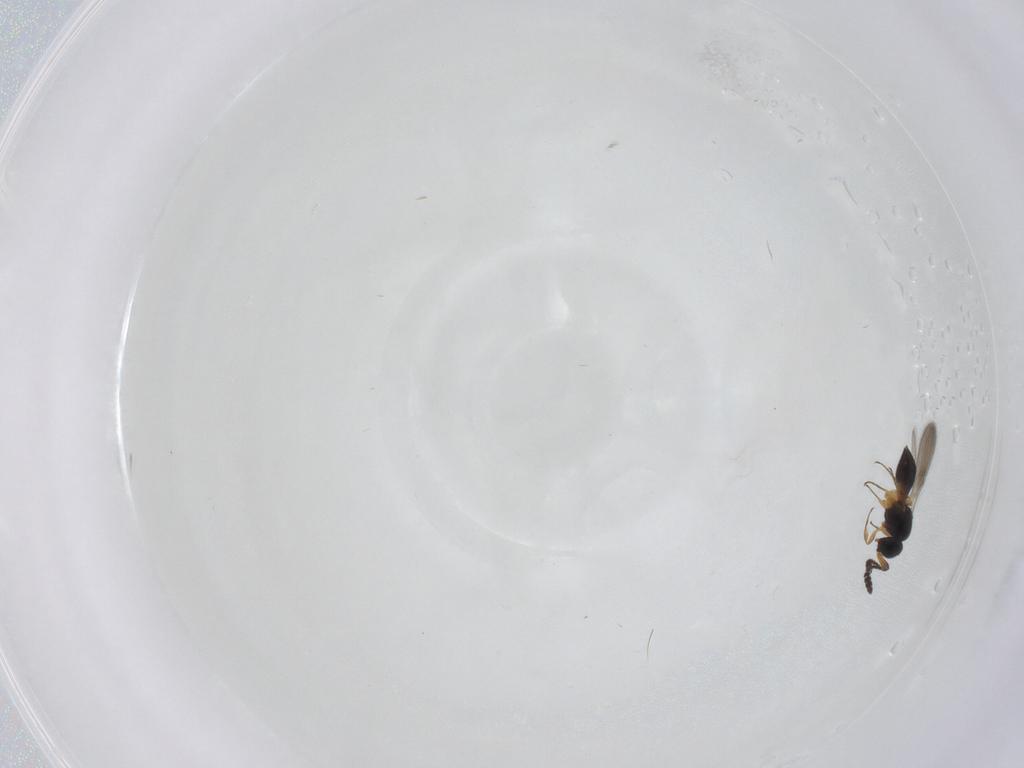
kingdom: Animalia
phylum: Arthropoda
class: Insecta
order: Hymenoptera
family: Scelionidae
